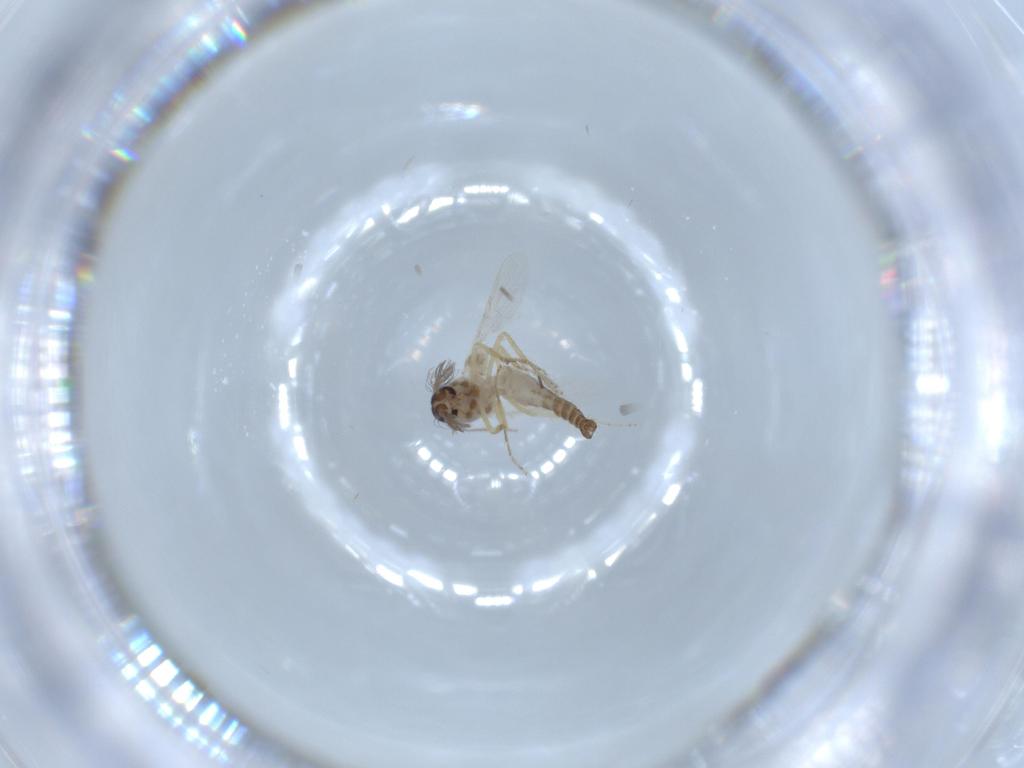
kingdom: Animalia
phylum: Arthropoda
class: Insecta
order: Diptera
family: Ceratopogonidae
